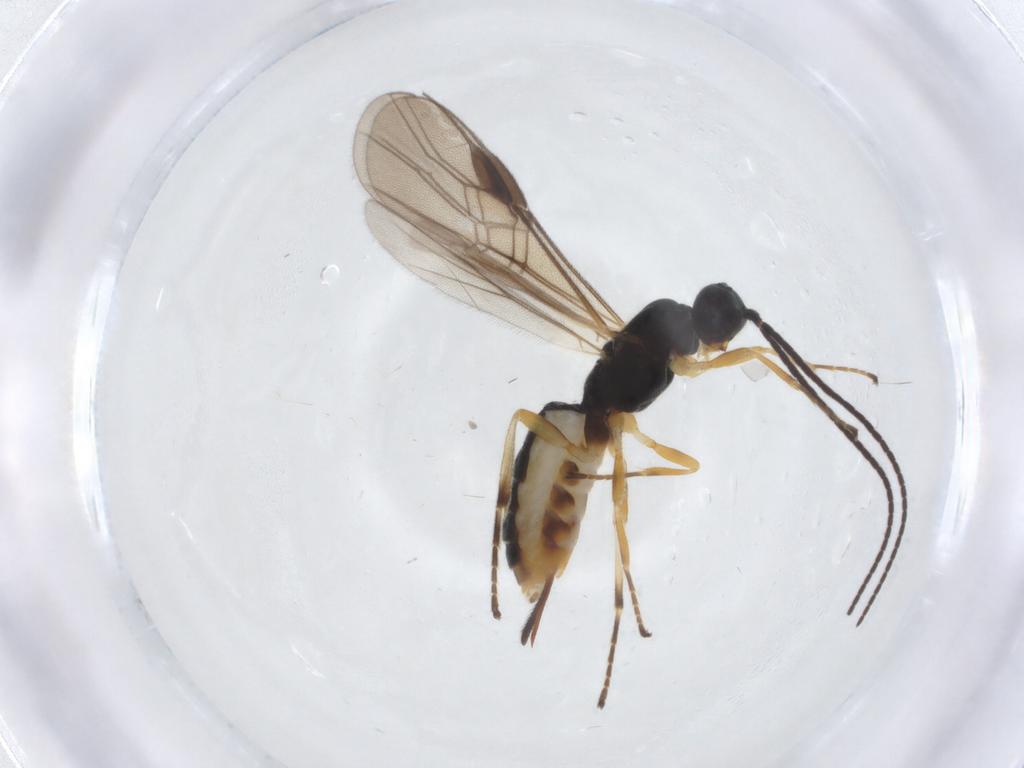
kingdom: Animalia
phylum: Arthropoda
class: Insecta
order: Hymenoptera
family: Braconidae
